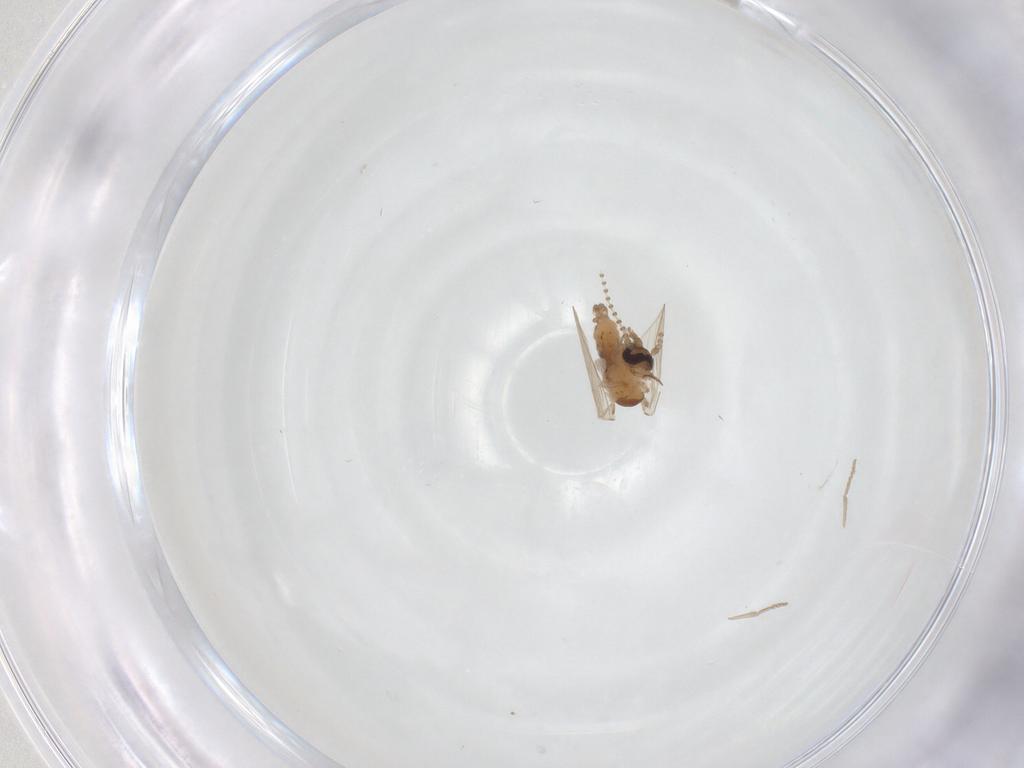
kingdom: Animalia
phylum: Arthropoda
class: Insecta
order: Diptera
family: Psychodidae
